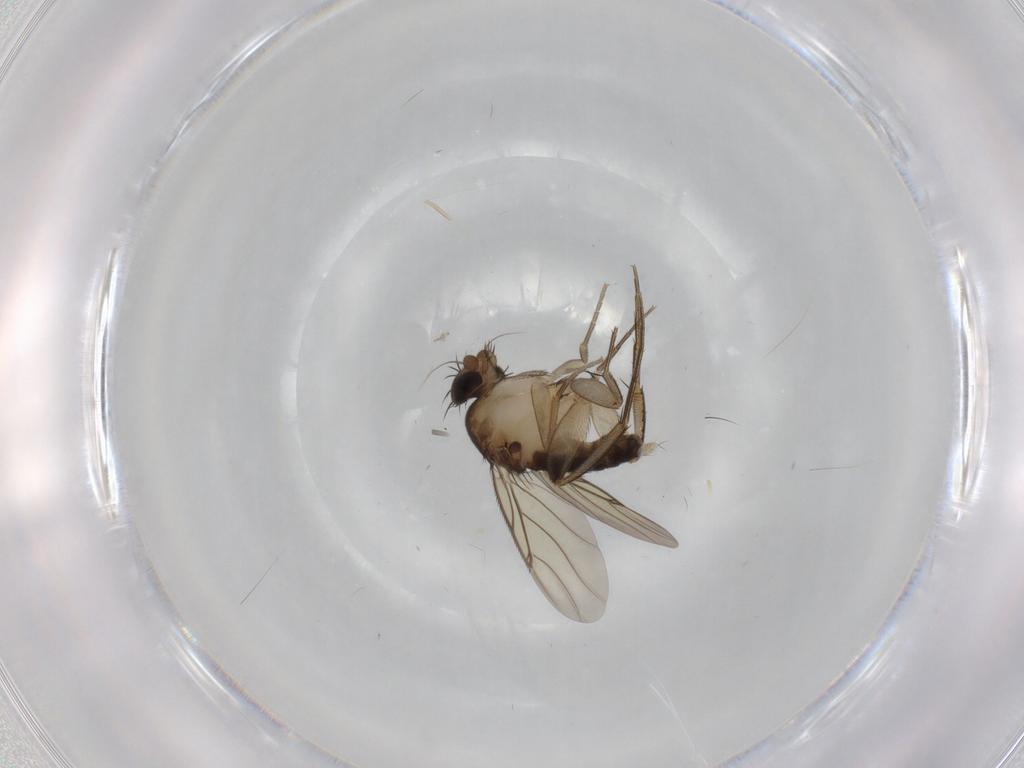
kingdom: Animalia
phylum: Arthropoda
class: Insecta
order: Diptera
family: Phoridae
